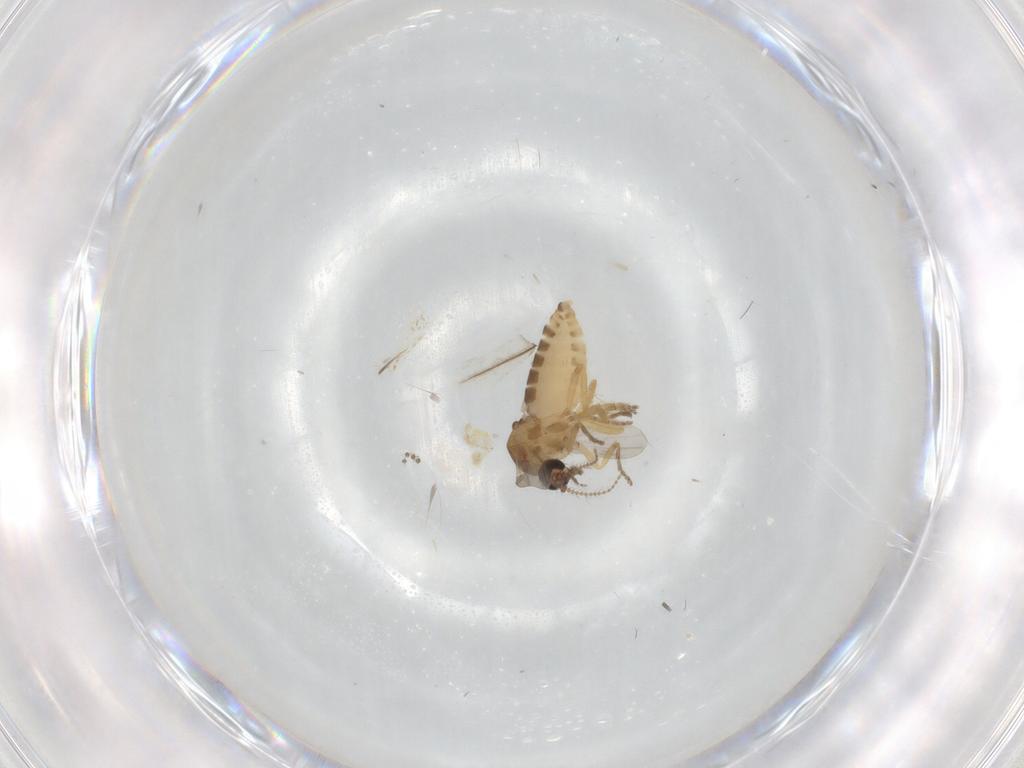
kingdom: Animalia
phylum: Arthropoda
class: Insecta
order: Diptera
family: Ceratopogonidae
